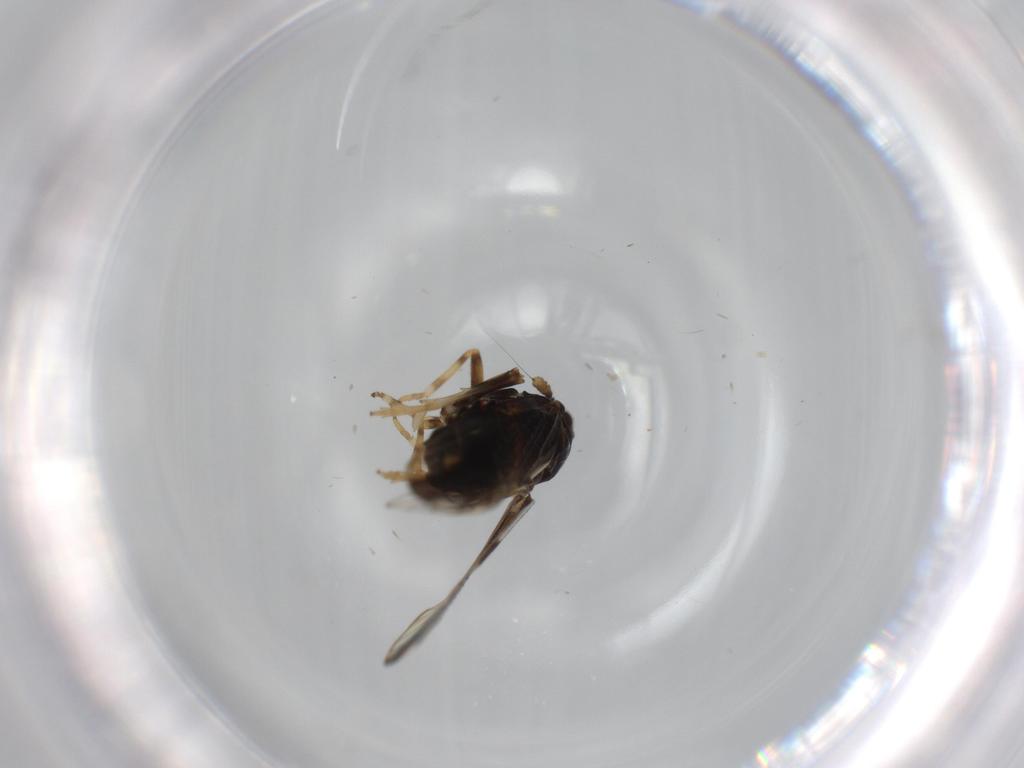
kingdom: Animalia
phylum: Arthropoda
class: Insecta
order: Hemiptera
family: Delphacidae
